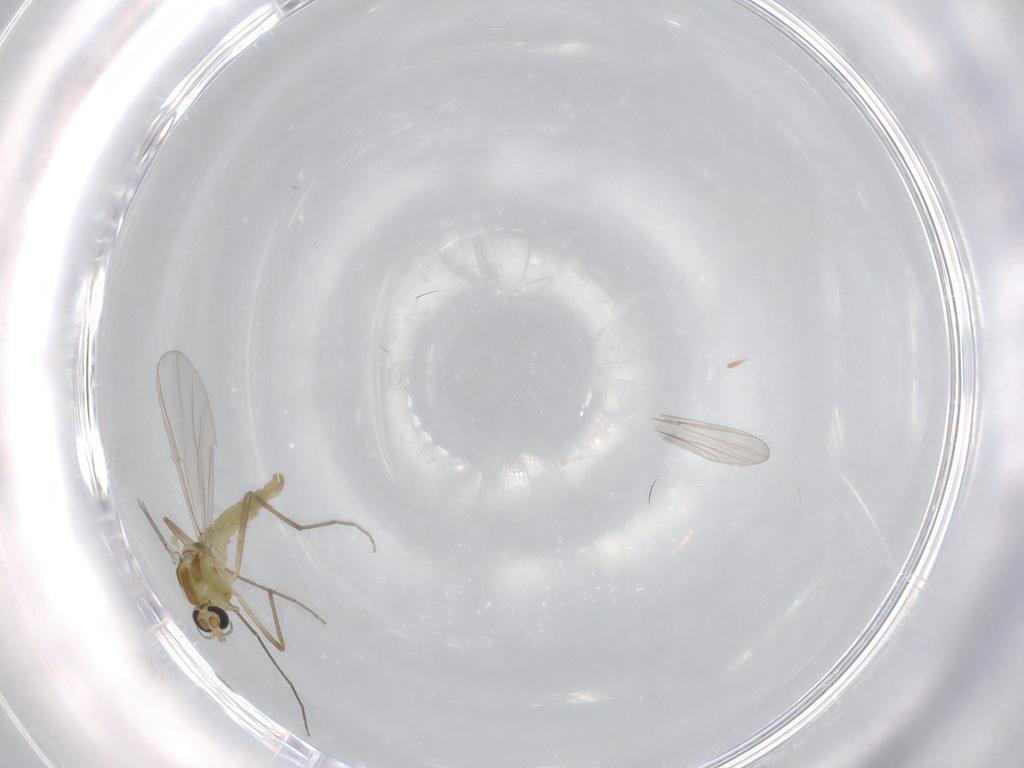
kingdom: Animalia
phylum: Arthropoda
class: Insecta
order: Diptera
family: Chironomidae
